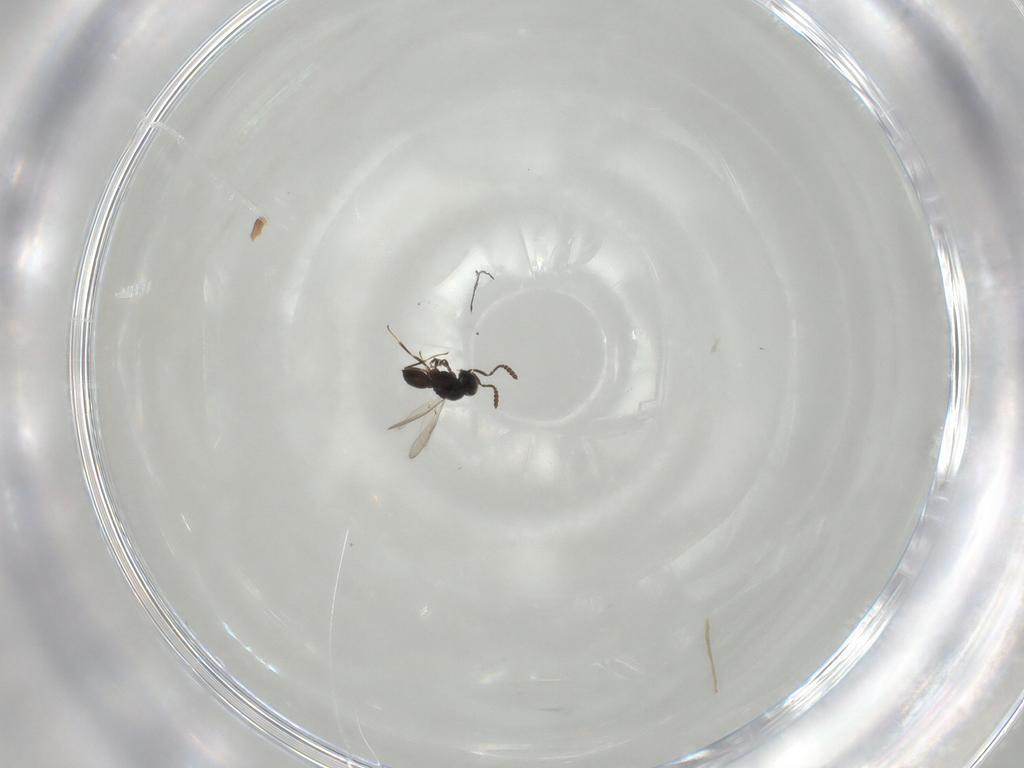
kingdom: Animalia
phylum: Arthropoda
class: Insecta
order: Hymenoptera
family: Scelionidae
